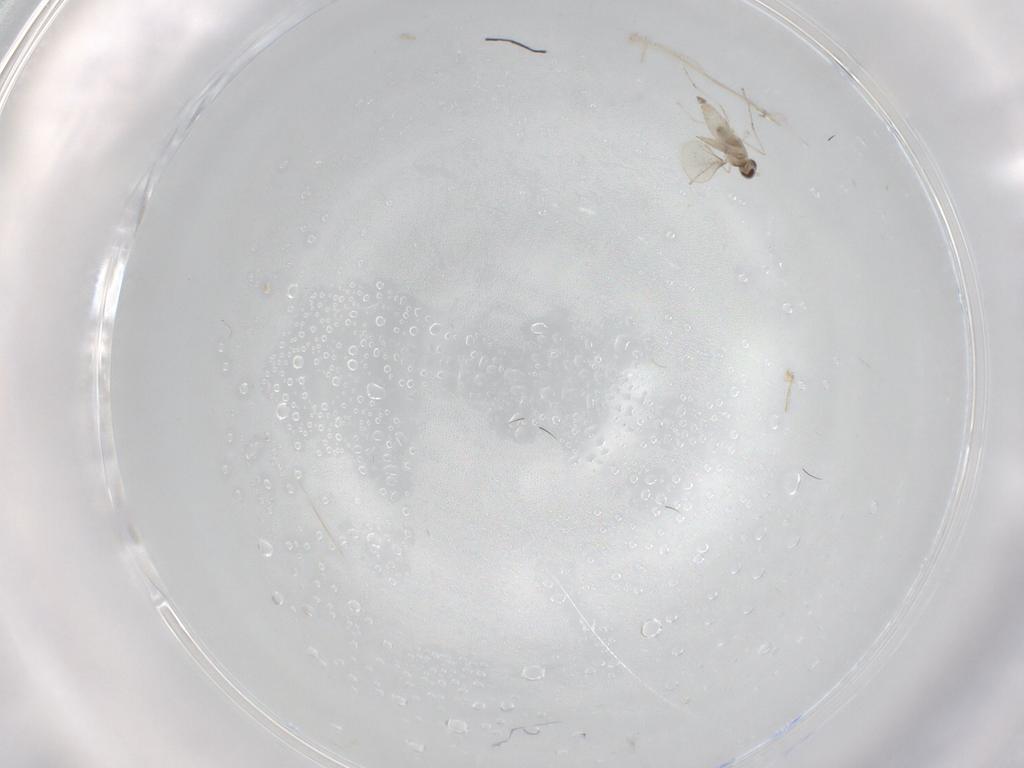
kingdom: Animalia
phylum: Arthropoda
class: Insecta
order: Diptera
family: Cecidomyiidae
